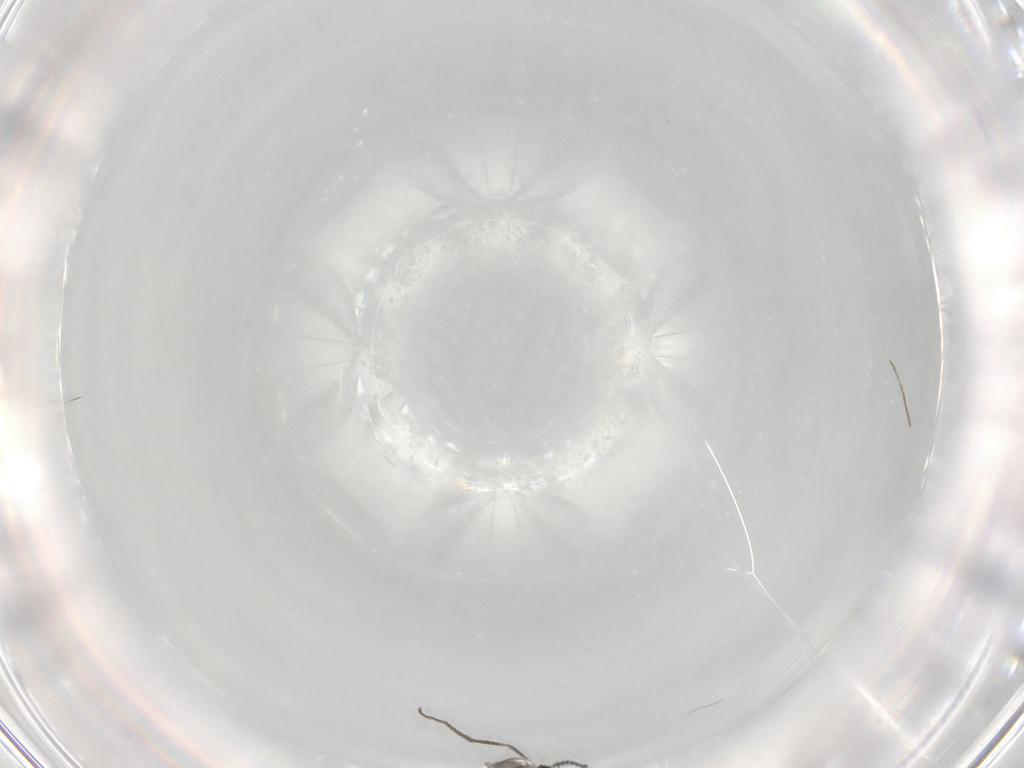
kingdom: Animalia
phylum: Arthropoda
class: Insecta
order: Diptera
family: Cecidomyiidae
